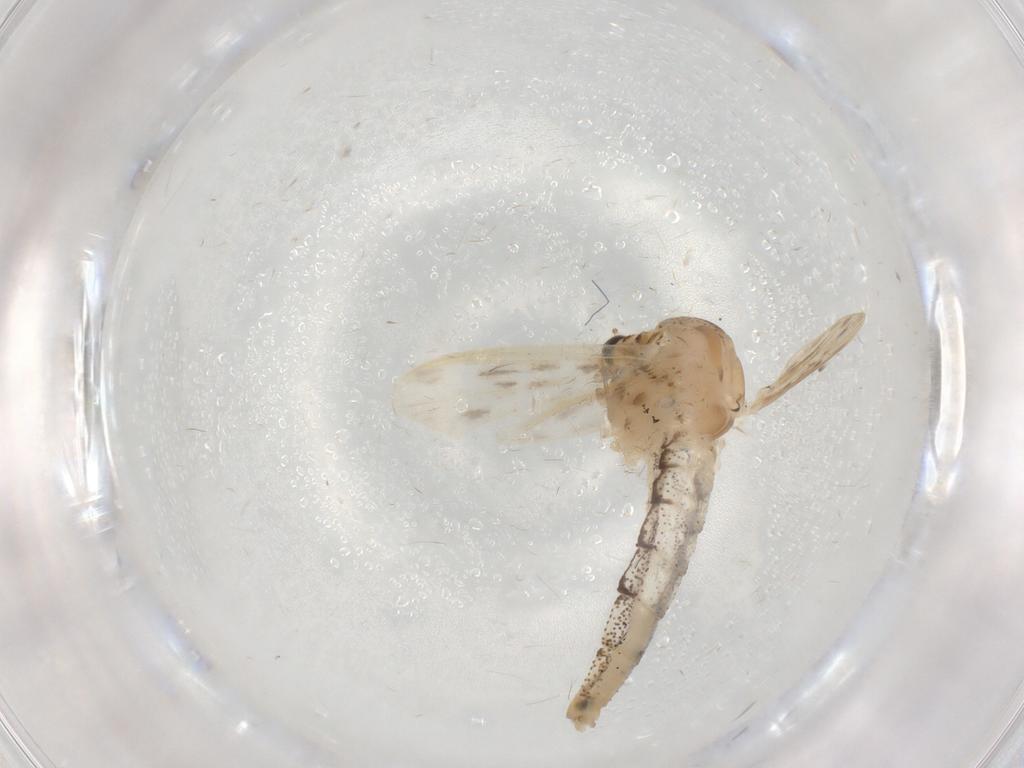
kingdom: Animalia
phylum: Arthropoda
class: Insecta
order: Diptera
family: Chaoboridae
